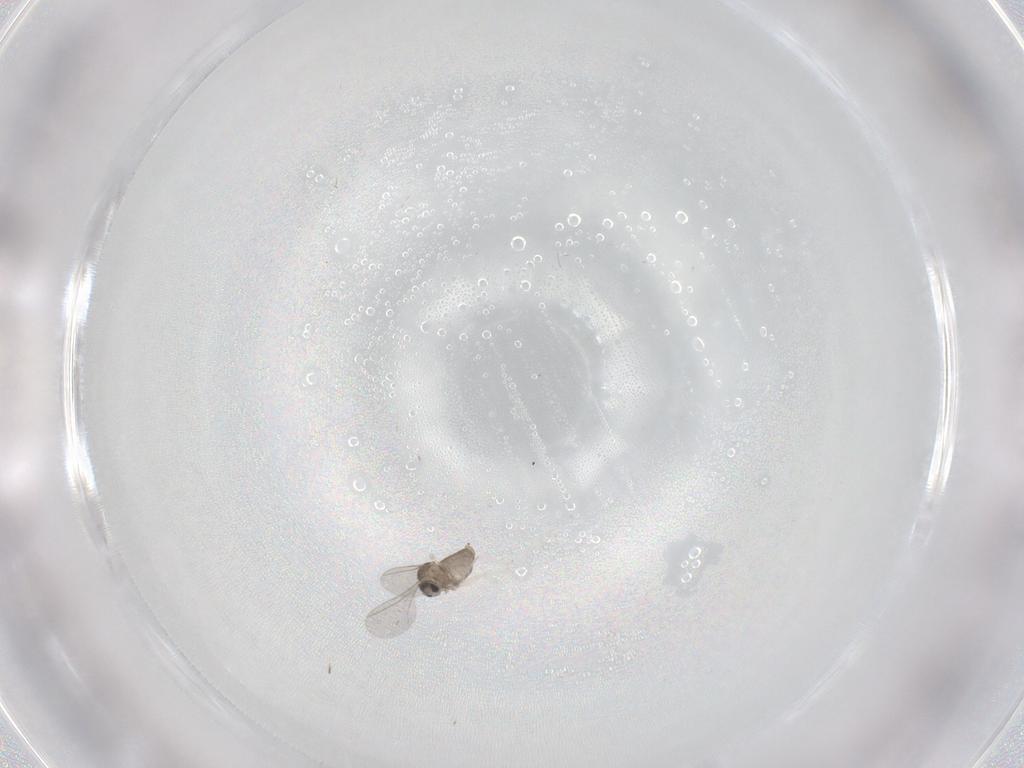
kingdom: Animalia
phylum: Arthropoda
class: Insecta
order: Diptera
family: Cecidomyiidae
